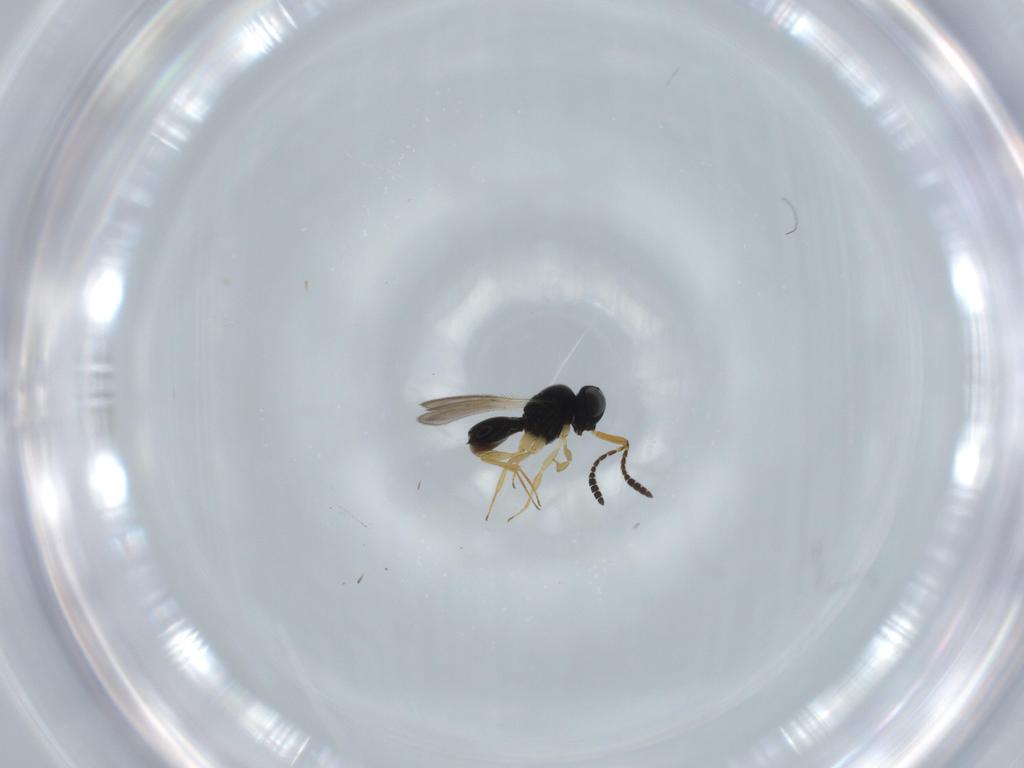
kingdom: Animalia
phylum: Arthropoda
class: Insecta
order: Hymenoptera
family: Scelionidae
